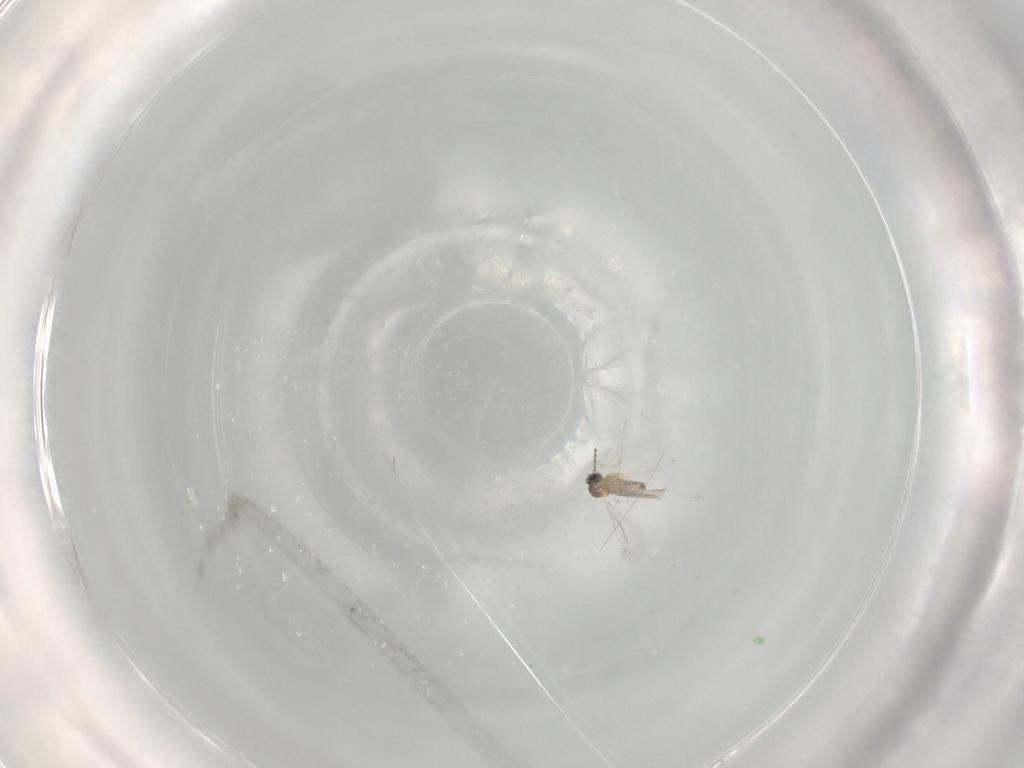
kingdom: Animalia
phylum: Arthropoda
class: Insecta
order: Diptera
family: Cecidomyiidae
